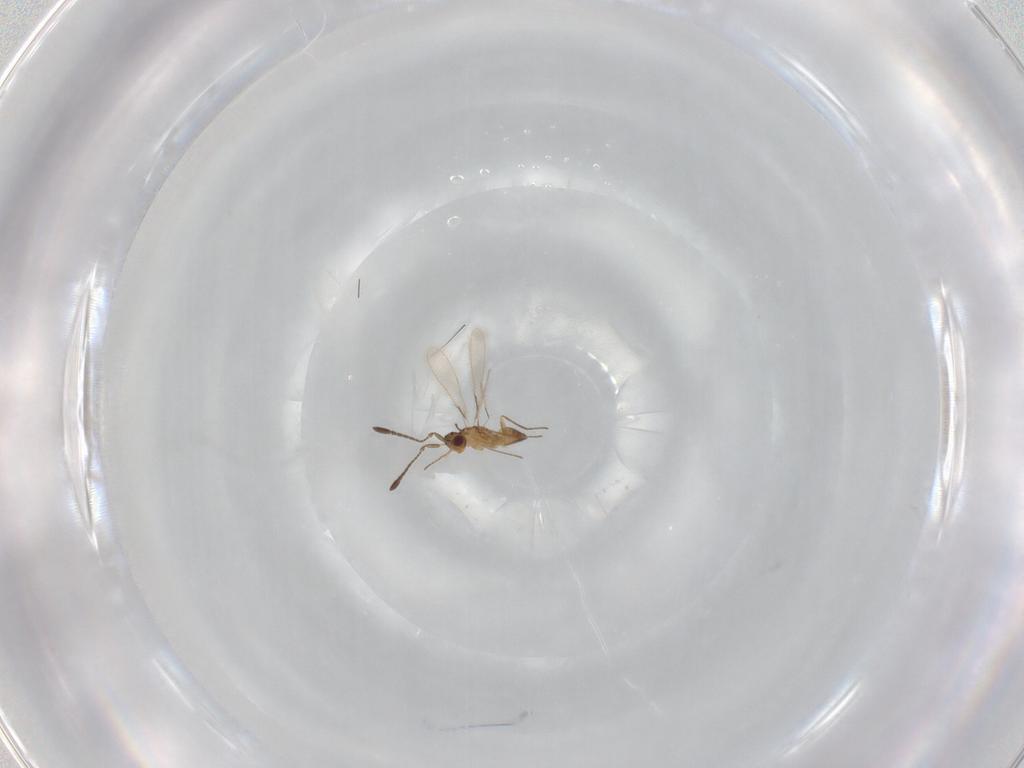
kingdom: Animalia
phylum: Arthropoda
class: Insecta
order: Hymenoptera
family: Mymaridae
